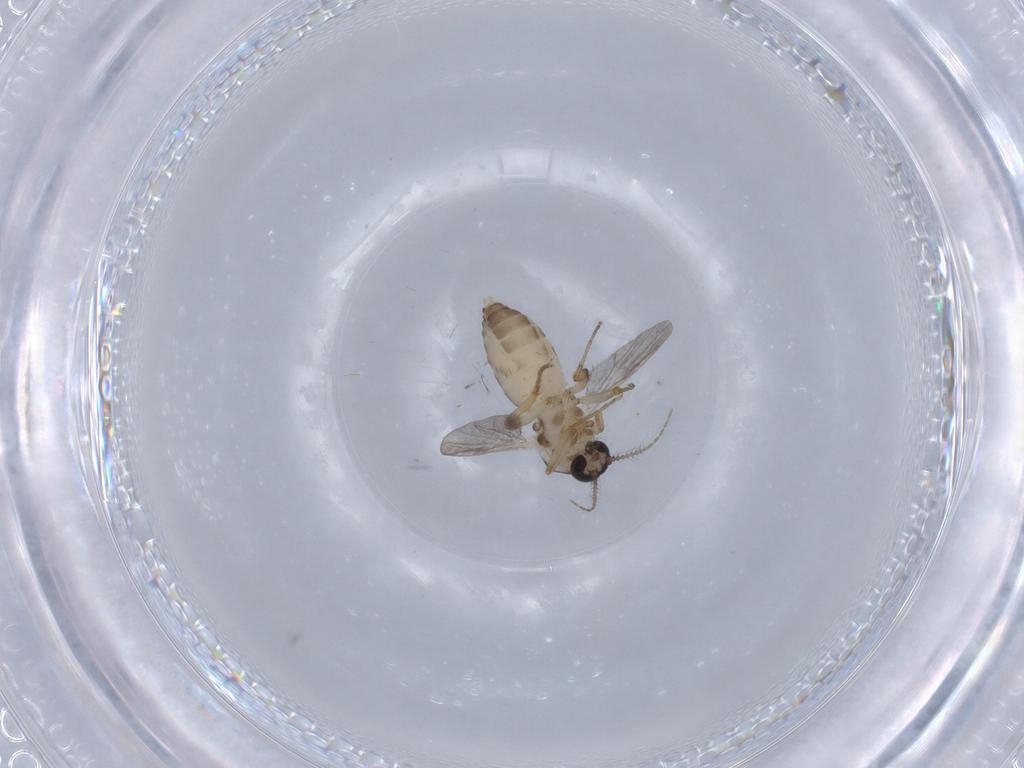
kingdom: Animalia
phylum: Arthropoda
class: Insecta
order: Diptera
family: Ceratopogonidae
